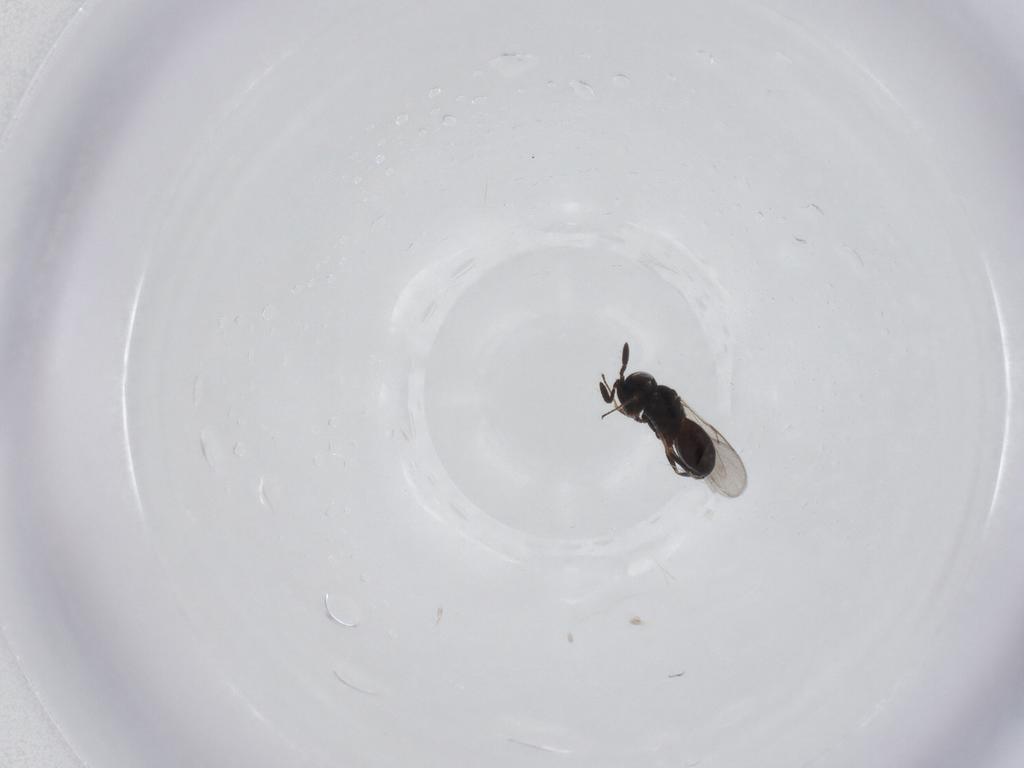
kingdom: Animalia
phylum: Arthropoda
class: Insecta
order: Hymenoptera
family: Scelionidae
